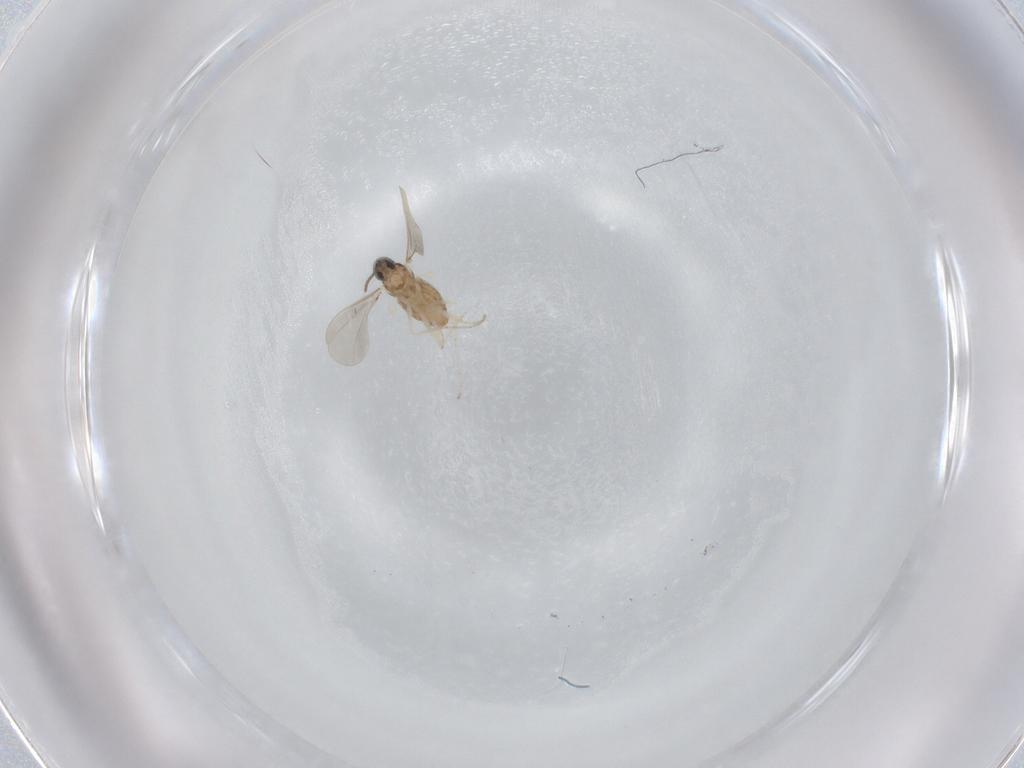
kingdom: Animalia
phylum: Arthropoda
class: Insecta
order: Diptera
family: Cecidomyiidae
